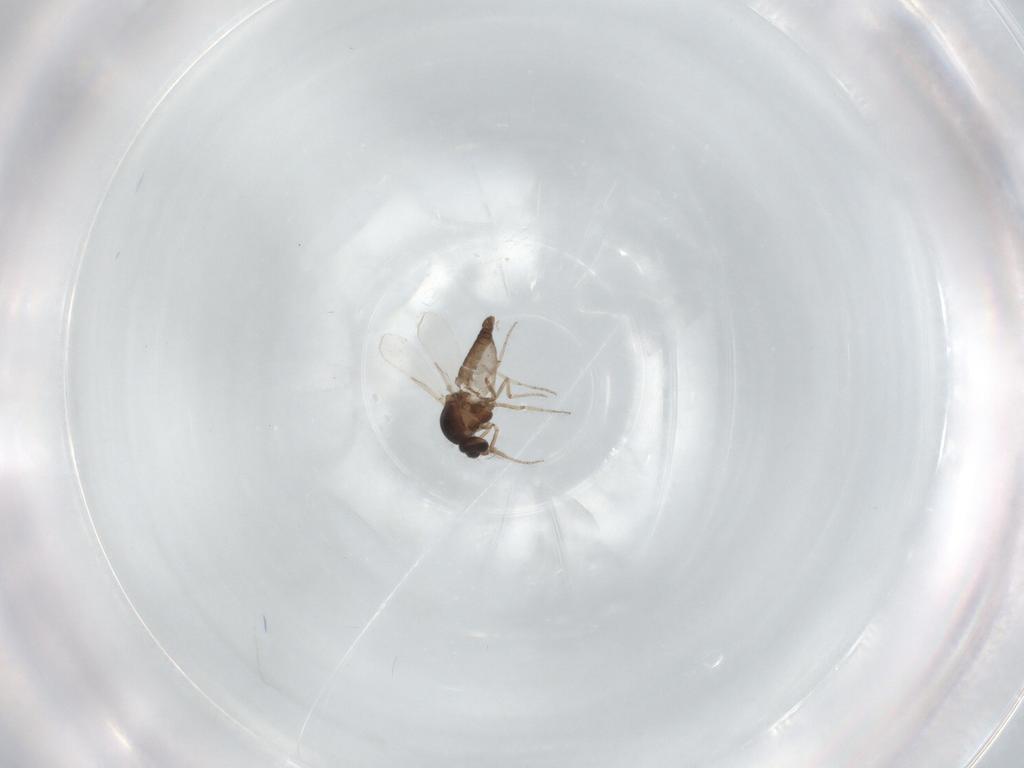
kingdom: Animalia
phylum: Arthropoda
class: Insecta
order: Diptera
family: Ceratopogonidae
